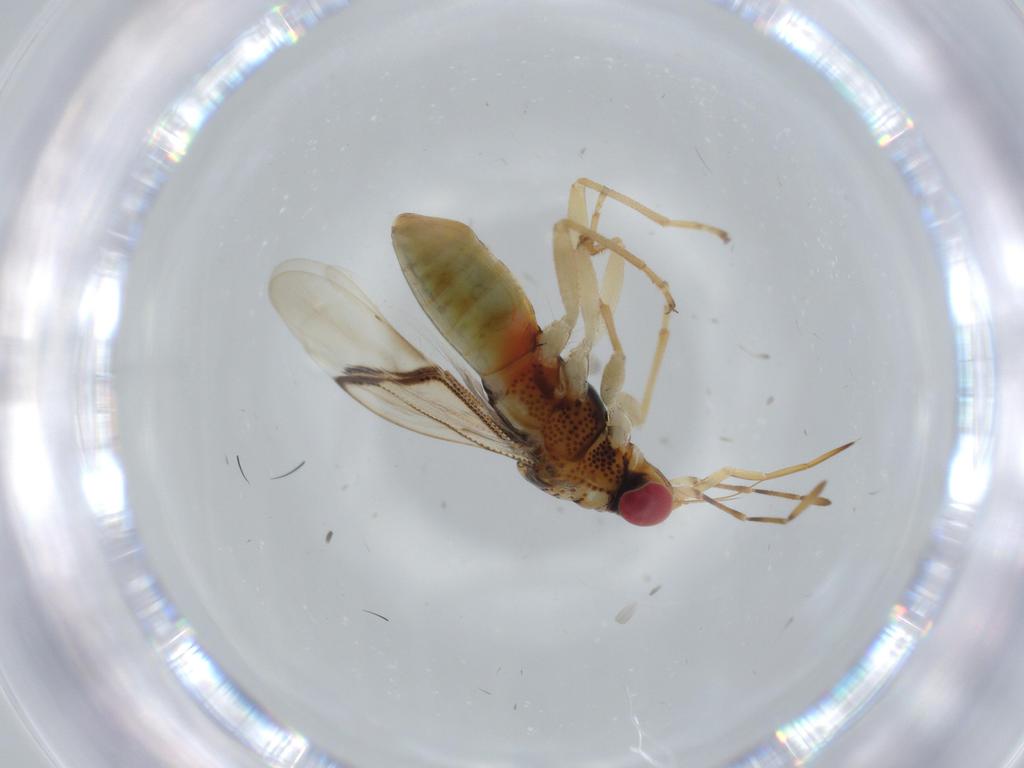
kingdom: Animalia
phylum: Arthropoda
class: Insecta
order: Hemiptera
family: Geocoridae
